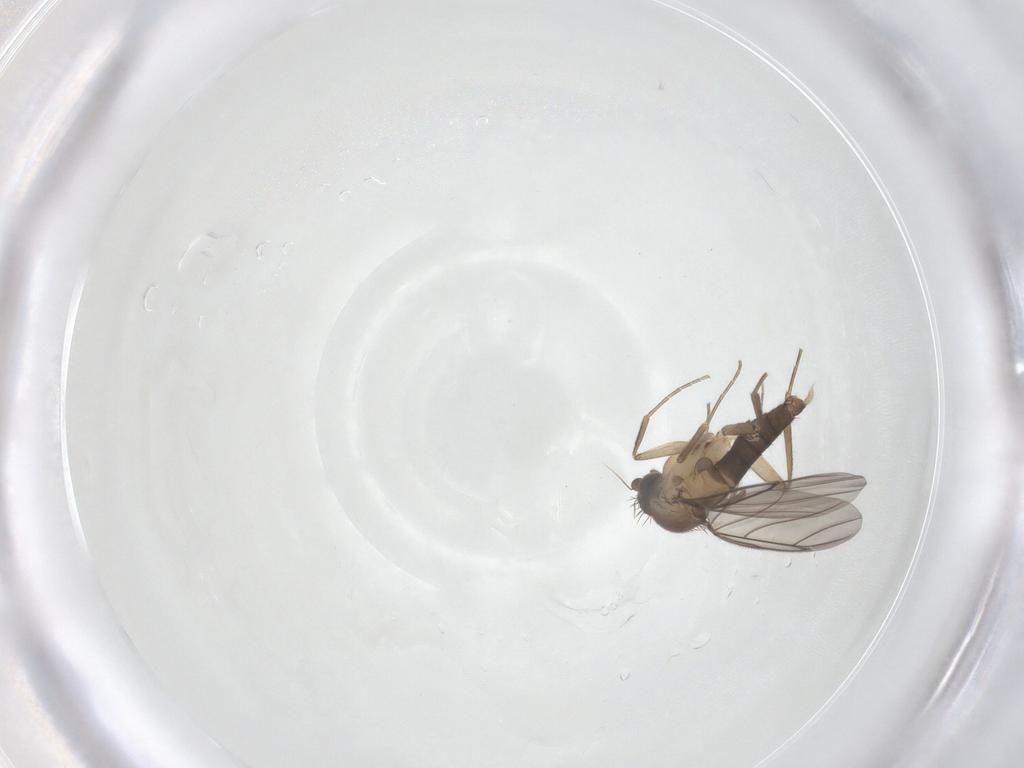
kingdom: Animalia
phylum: Arthropoda
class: Insecta
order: Diptera
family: Phoridae
